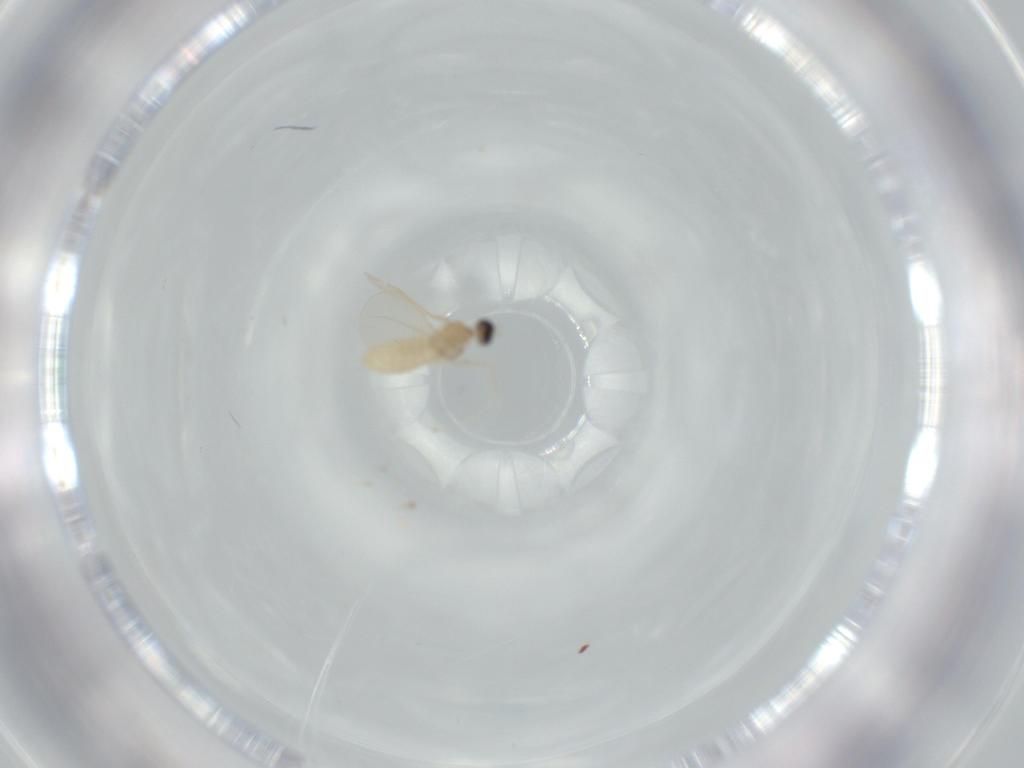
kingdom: Animalia
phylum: Arthropoda
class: Insecta
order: Diptera
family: Cecidomyiidae
